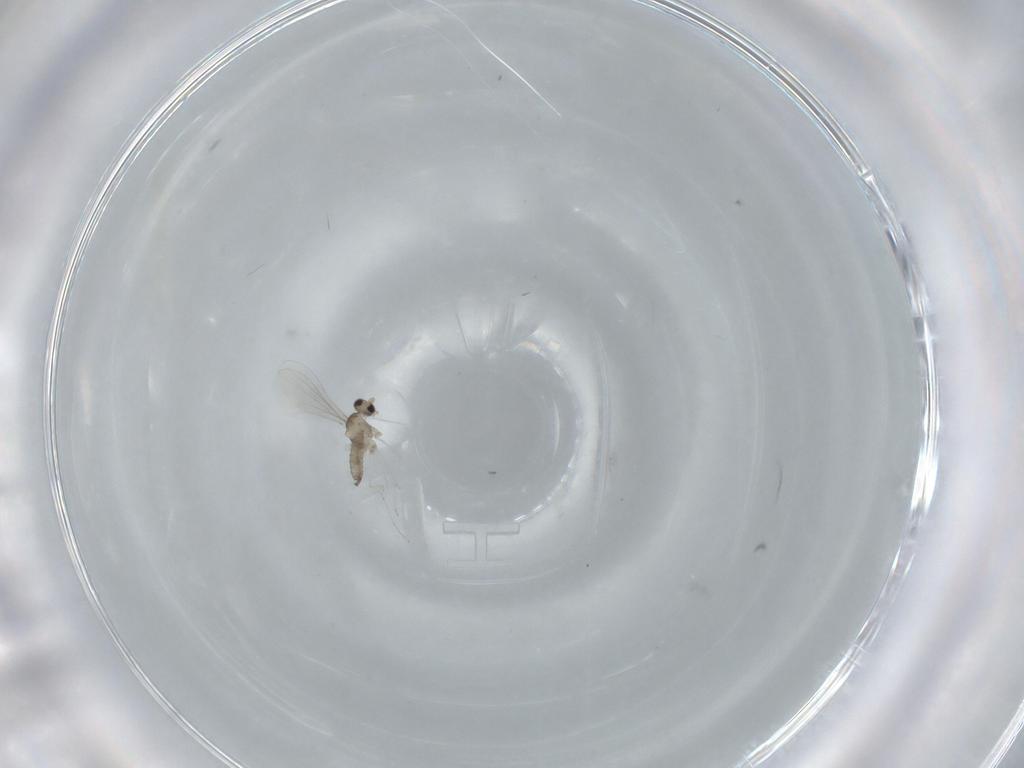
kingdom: Animalia
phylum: Arthropoda
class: Insecta
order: Diptera
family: Cecidomyiidae
